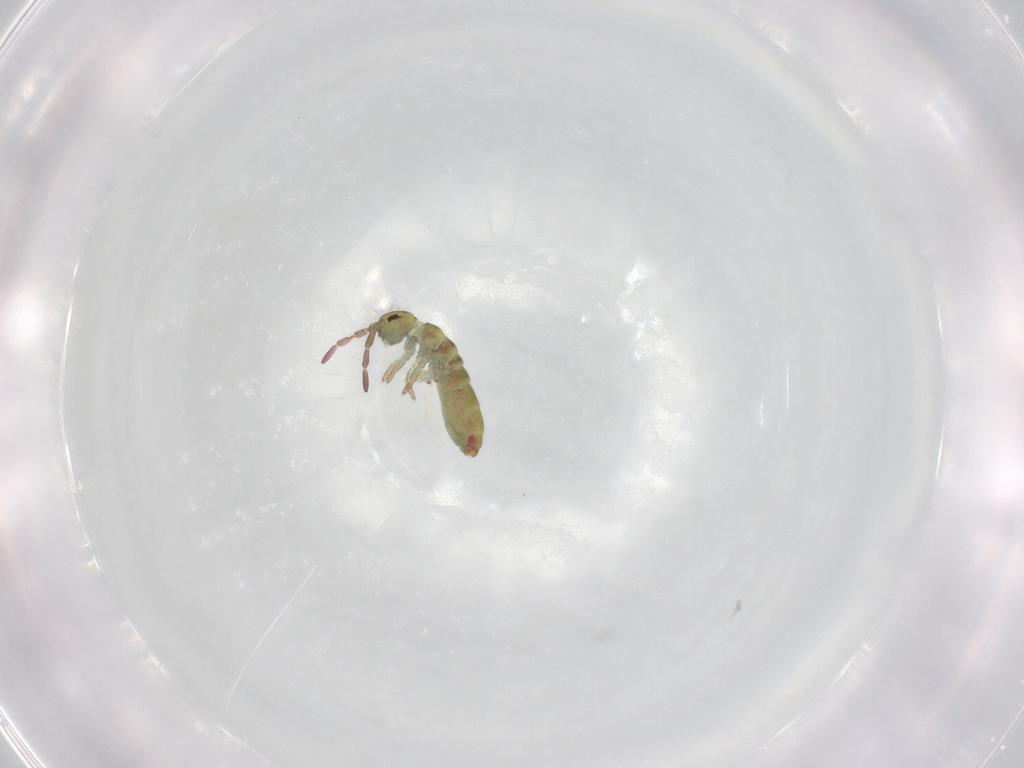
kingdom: Animalia
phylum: Arthropoda
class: Collembola
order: Entomobryomorpha
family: Isotomidae
